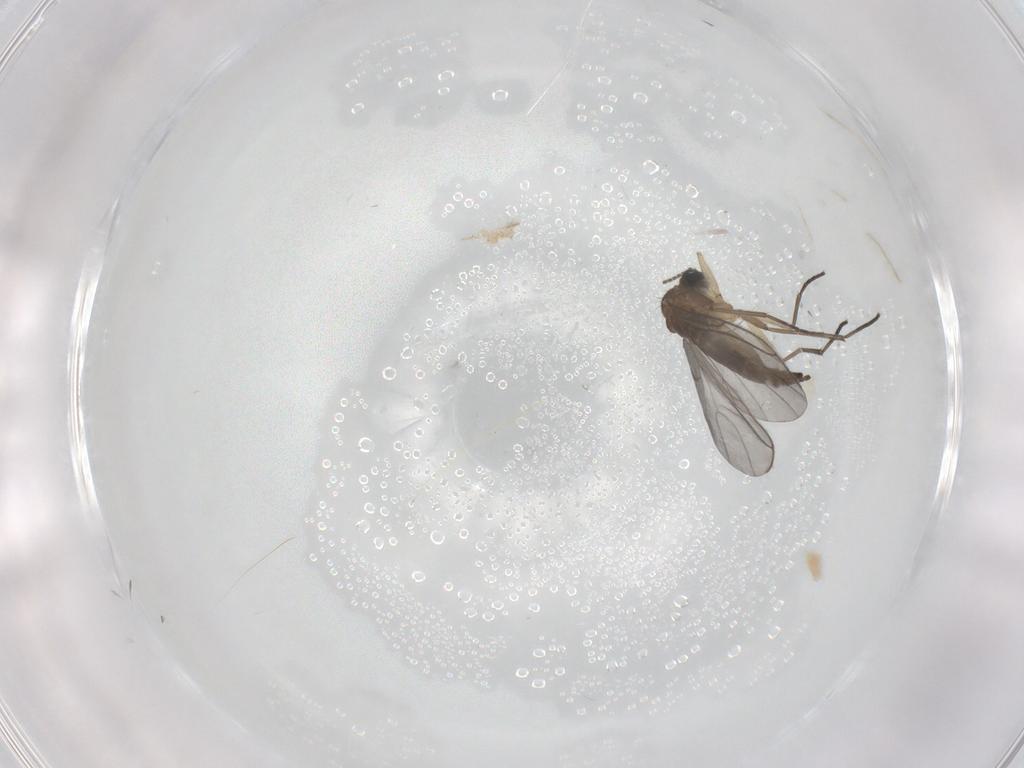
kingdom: Animalia
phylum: Arthropoda
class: Insecta
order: Diptera
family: Sciaridae
